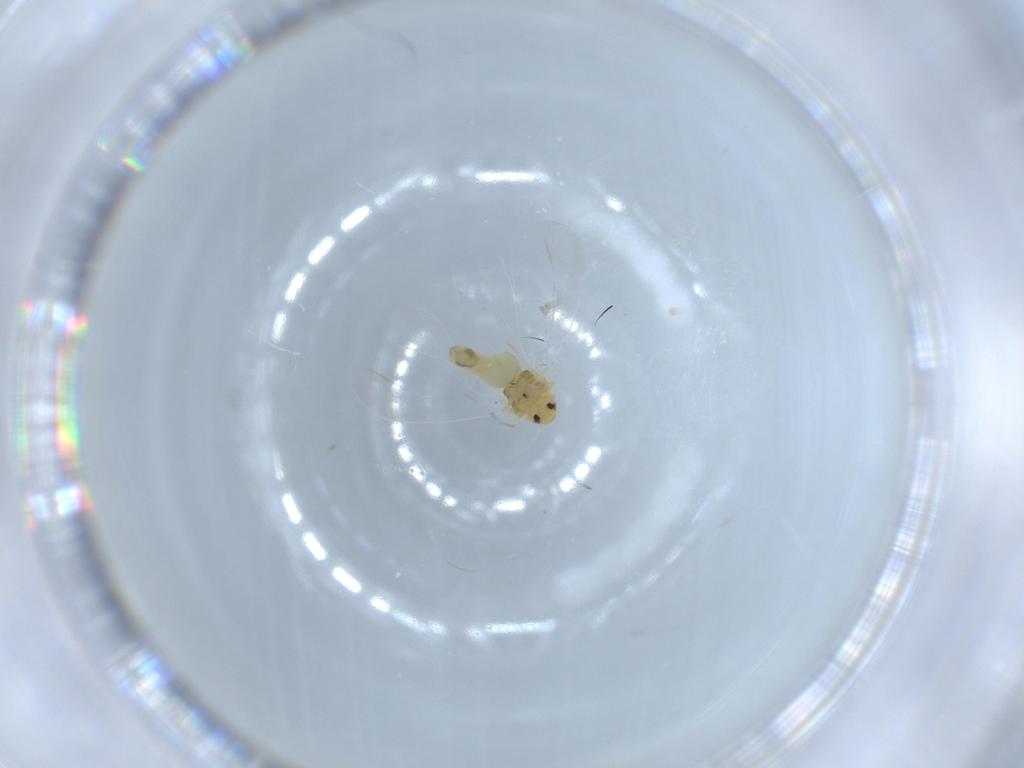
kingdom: Animalia
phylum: Arthropoda
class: Insecta
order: Hemiptera
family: Aleyrodidae
